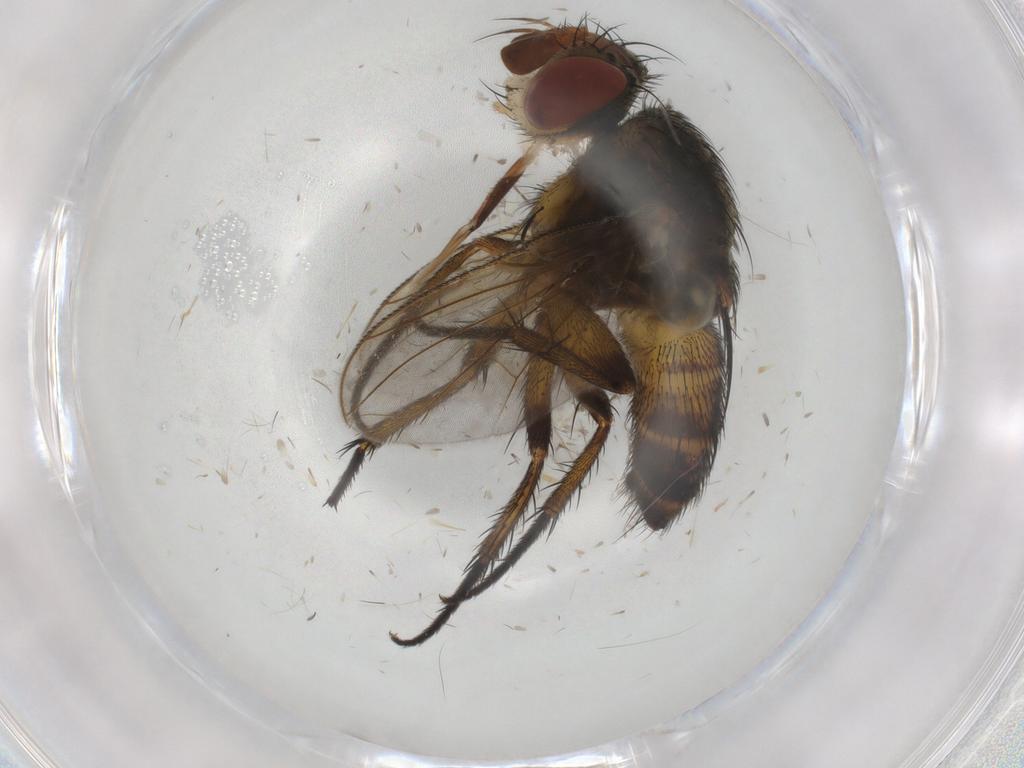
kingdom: Animalia
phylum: Arthropoda
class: Insecta
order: Diptera
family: Tachinidae
